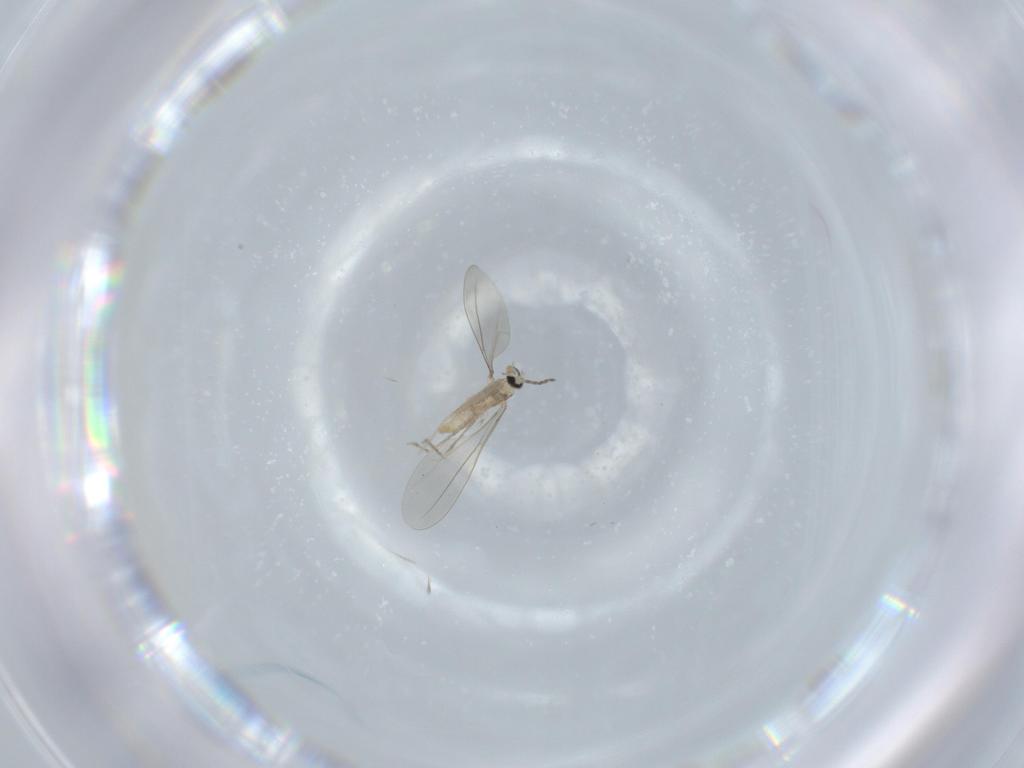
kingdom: Animalia
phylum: Arthropoda
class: Insecta
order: Diptera
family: Cecidomyiidae
